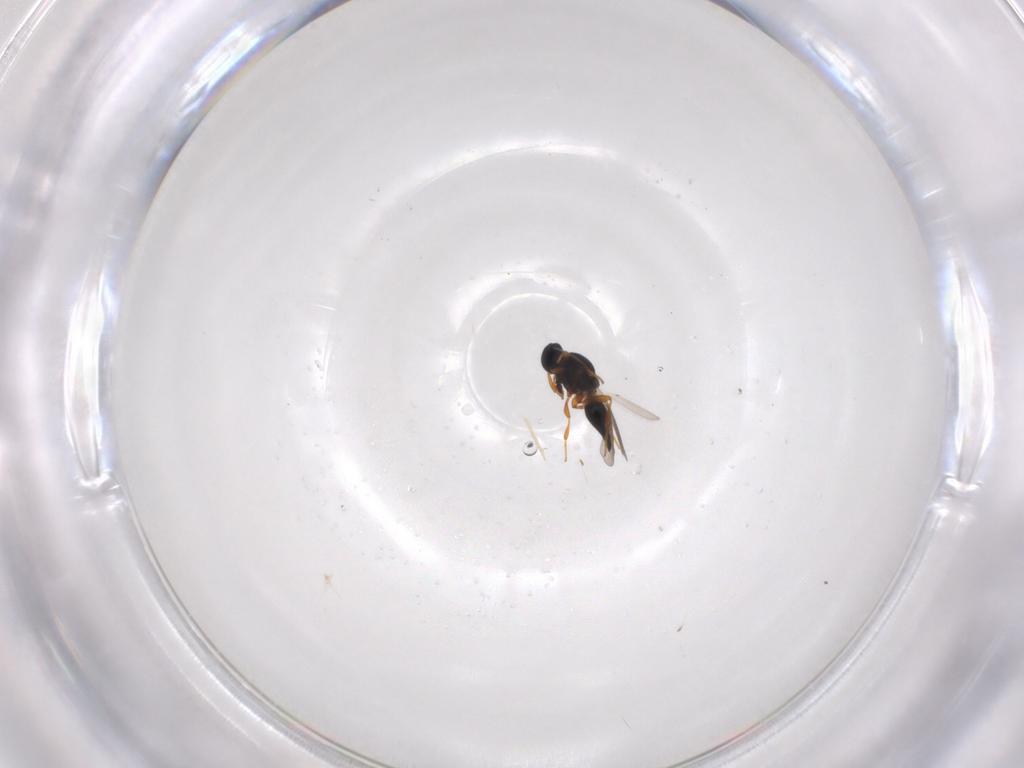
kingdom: Animalia
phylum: Arthropoda
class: Insecta
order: Hymenoptera
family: Platygastridae
